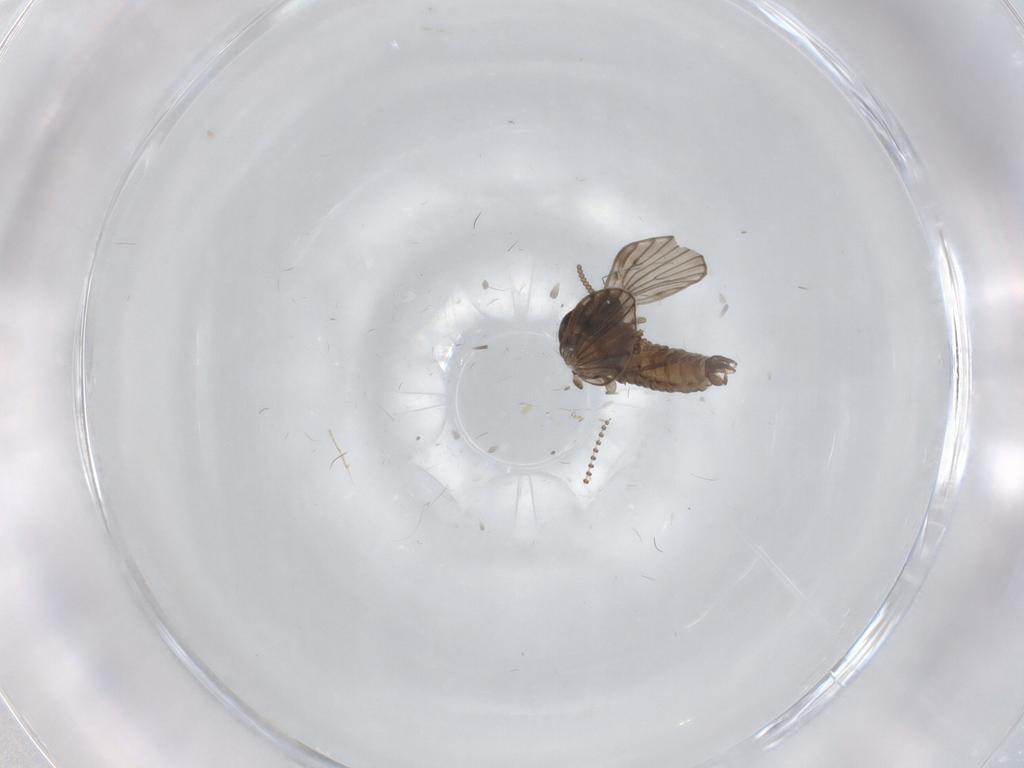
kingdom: Animalia
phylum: Arthropoda
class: Insecta
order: Diptera
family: Psychodidae
